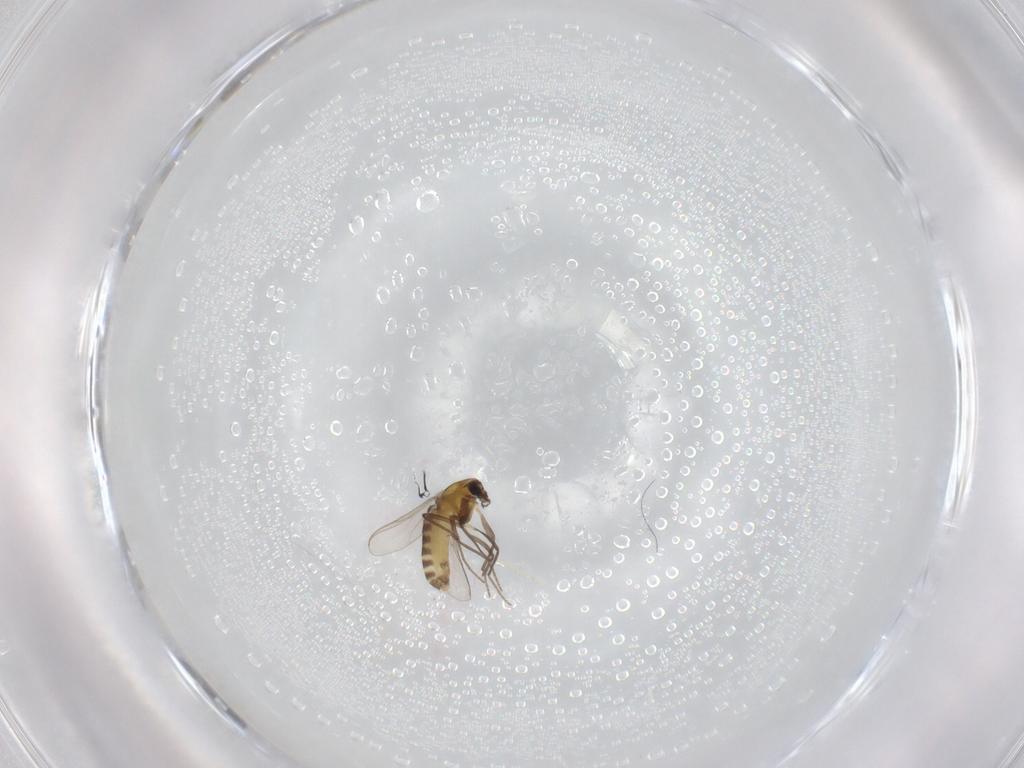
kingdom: Animalia
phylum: Arthropoda
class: Insecta
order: Diptera
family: Chironomidae
